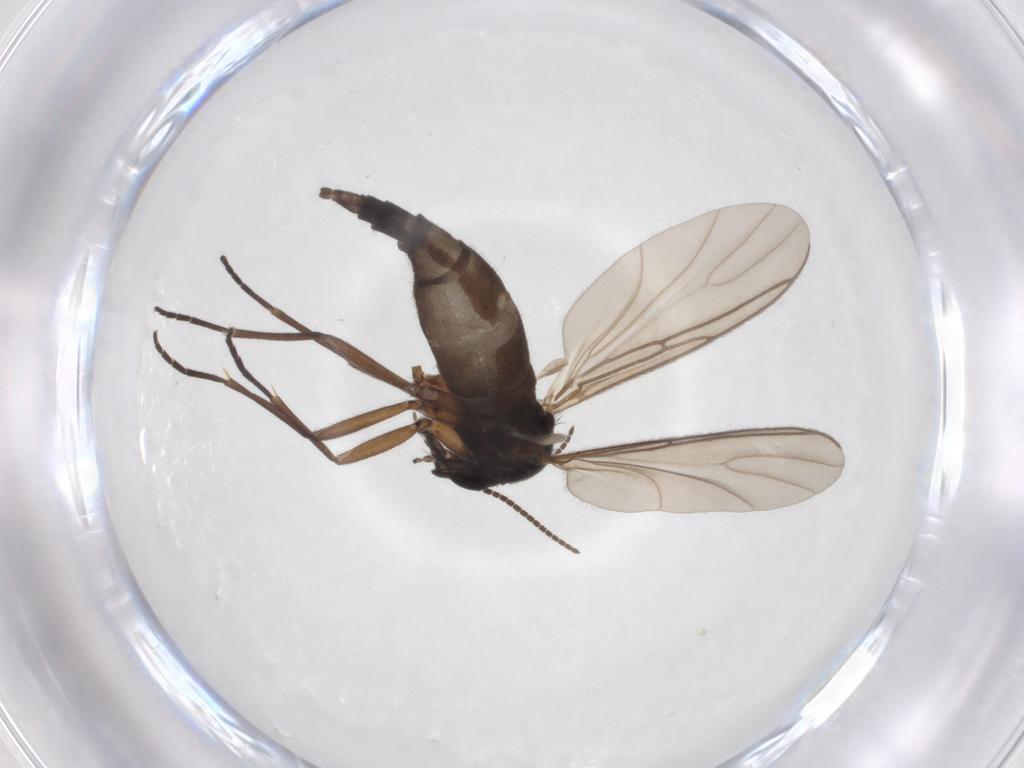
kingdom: Animalia
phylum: Arthropoda
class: Insecta
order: Diptera
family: Sciaridae
